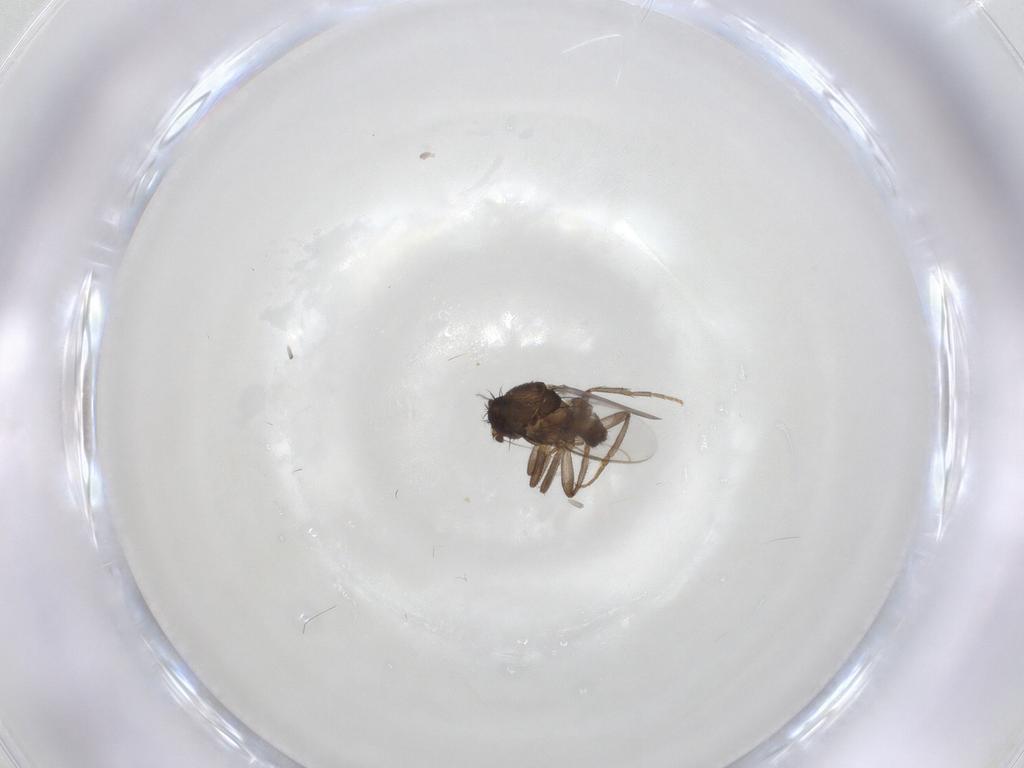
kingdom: Animalia
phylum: Arthropoda
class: Insecta
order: Diptera
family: Sphaeroceridae
